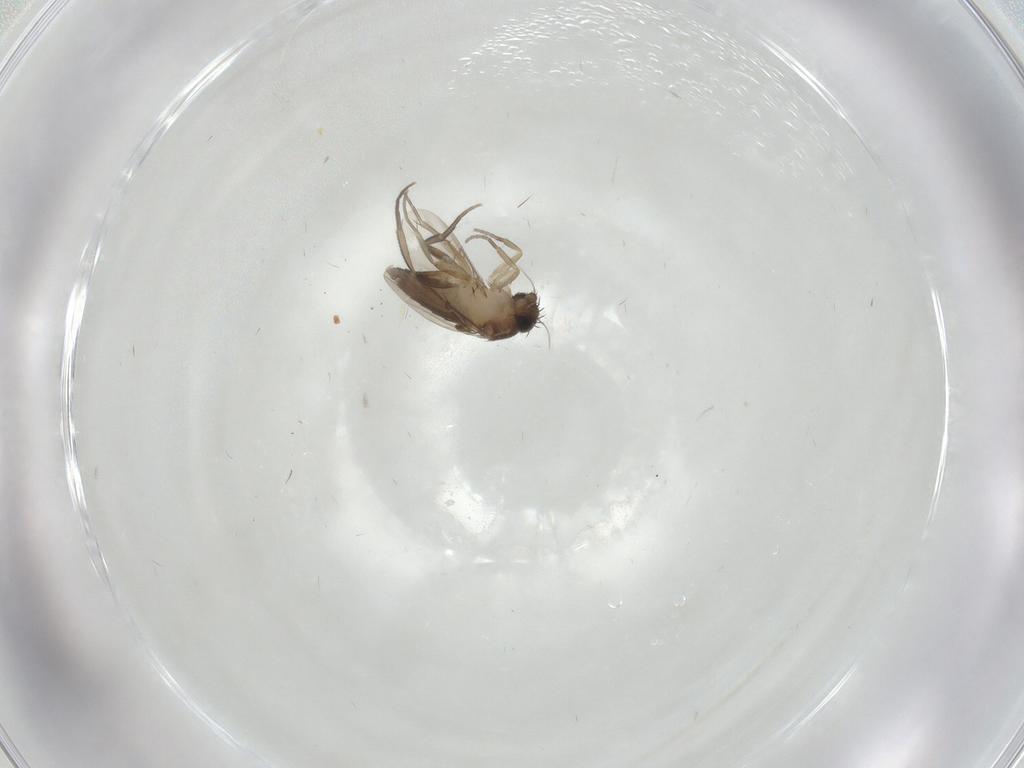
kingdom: Animalia
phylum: Arthropoda
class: Insecta
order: Diptera
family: Phoridae
